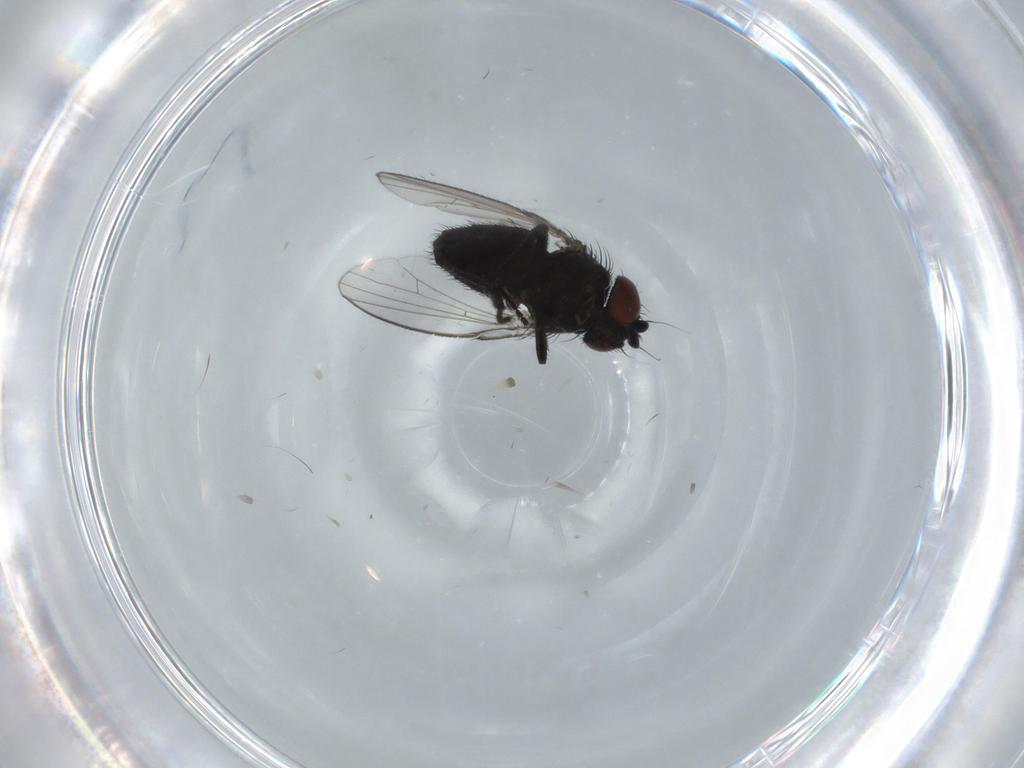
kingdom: Animalia
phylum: Arthropoda
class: Insecta
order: Diptera
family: Milichiidae
